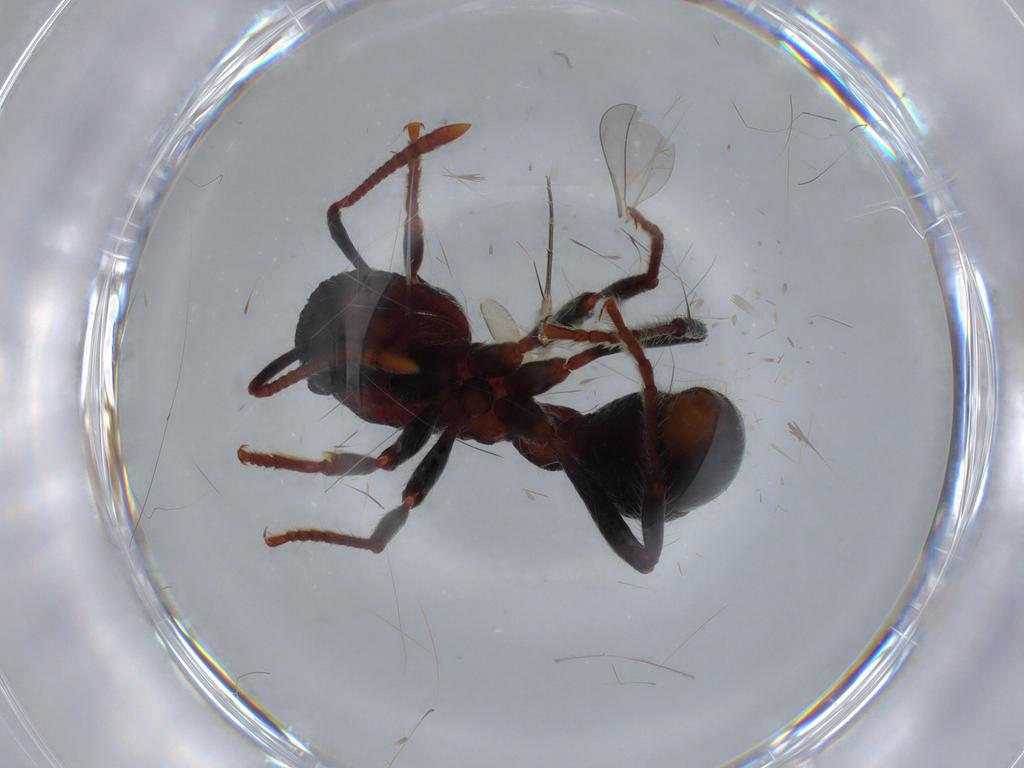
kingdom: Animalia
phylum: Arthropoda
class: Insecta
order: Hymenoptera
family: Formicidae
